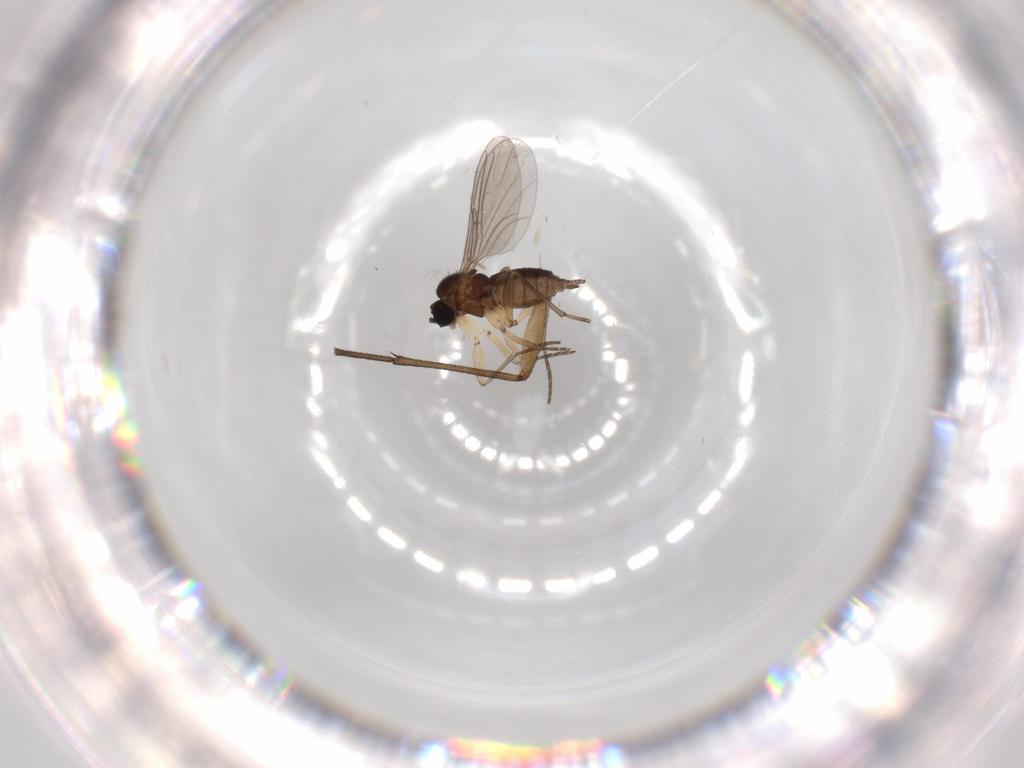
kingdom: Animalia
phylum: Arthropoda
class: Insecta
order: Diptera
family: Sciaridae
